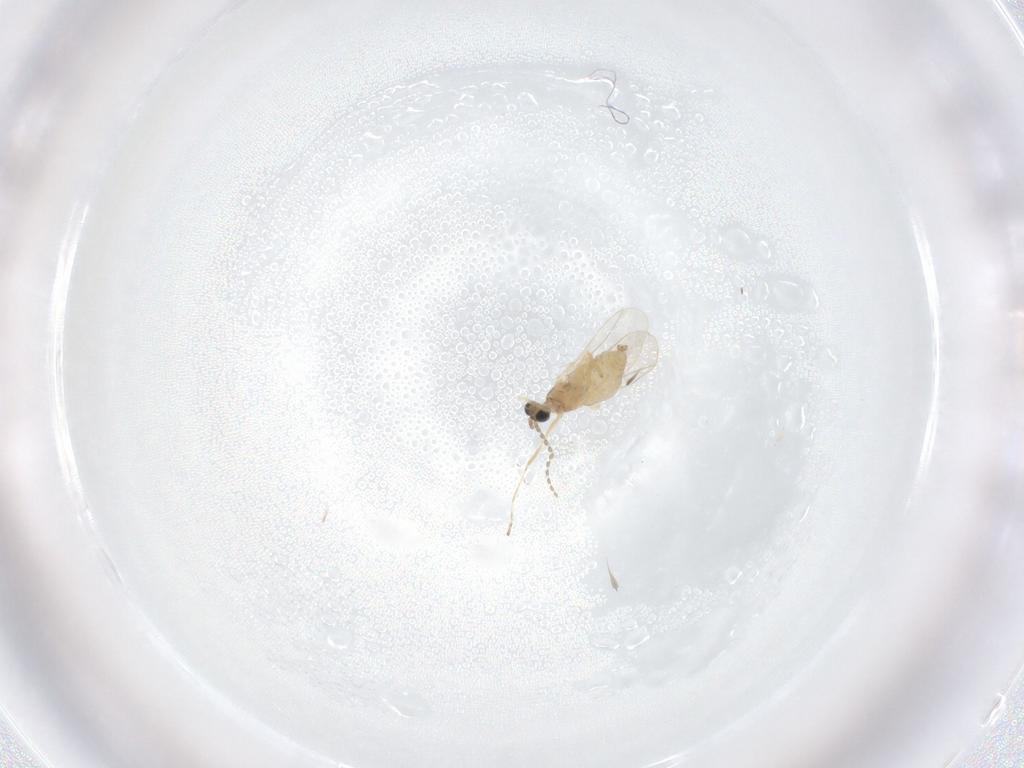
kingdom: Animalia
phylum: Arthropoda
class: Insecta
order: Diptera
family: Cecidomyiidae
